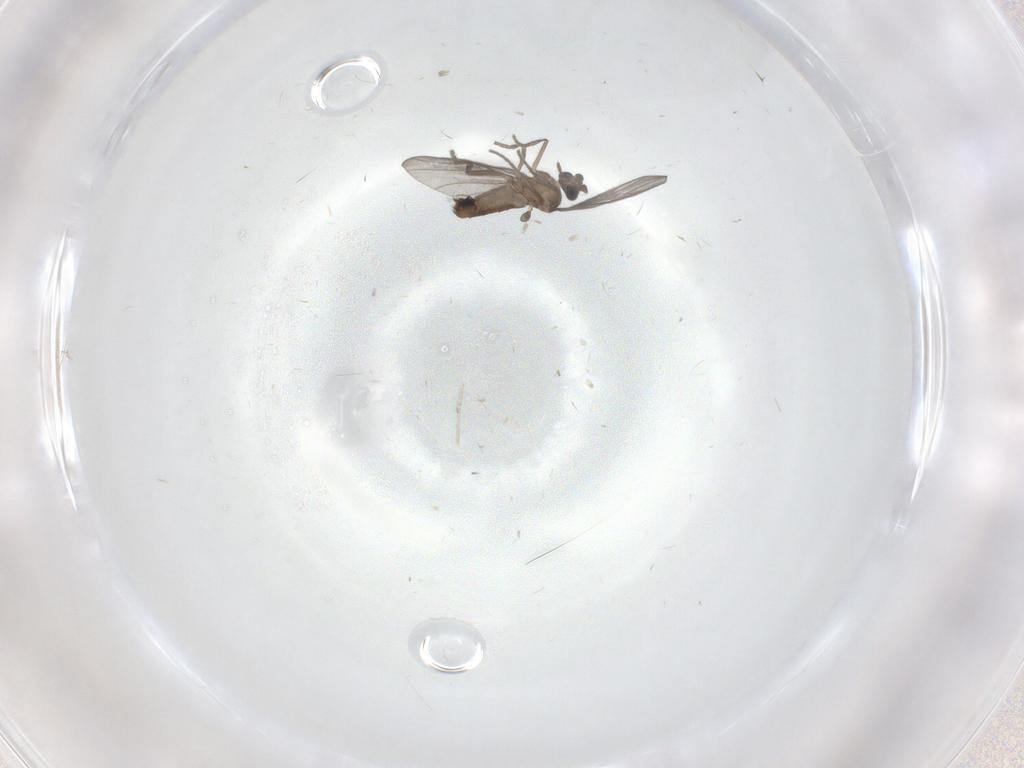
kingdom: Animalia
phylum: Arthropoda
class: Insecta
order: Diptera
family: Phoridae
